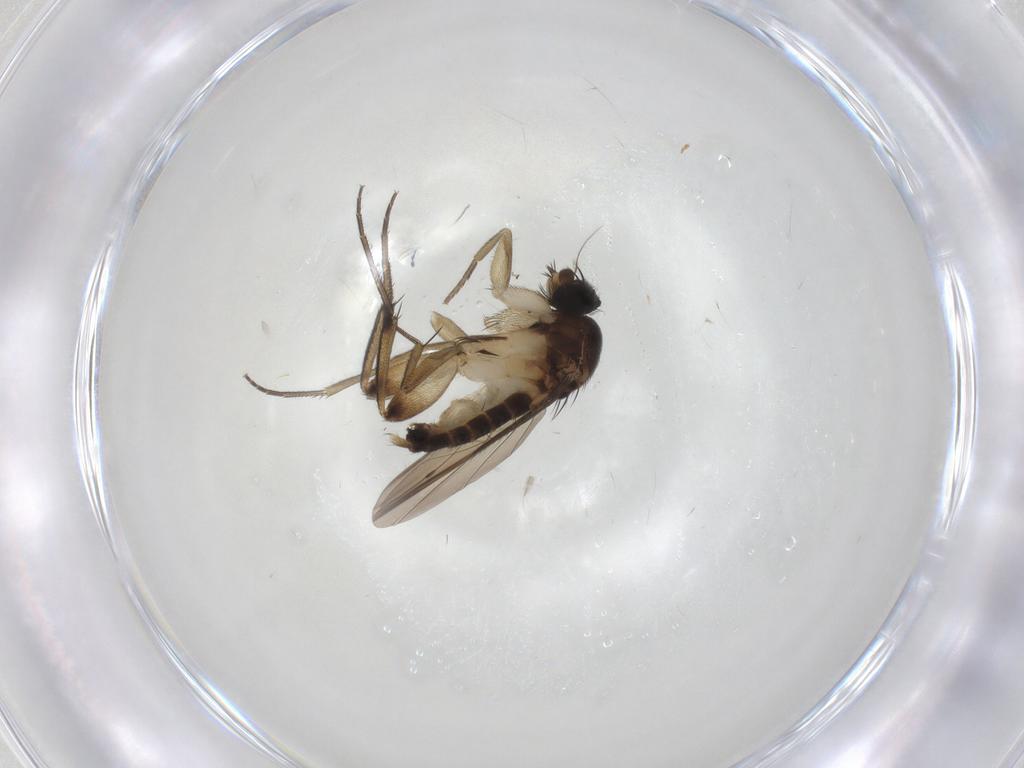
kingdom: Animalia
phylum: Arthropoda
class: Insecta
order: Diptera
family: Phoridae
